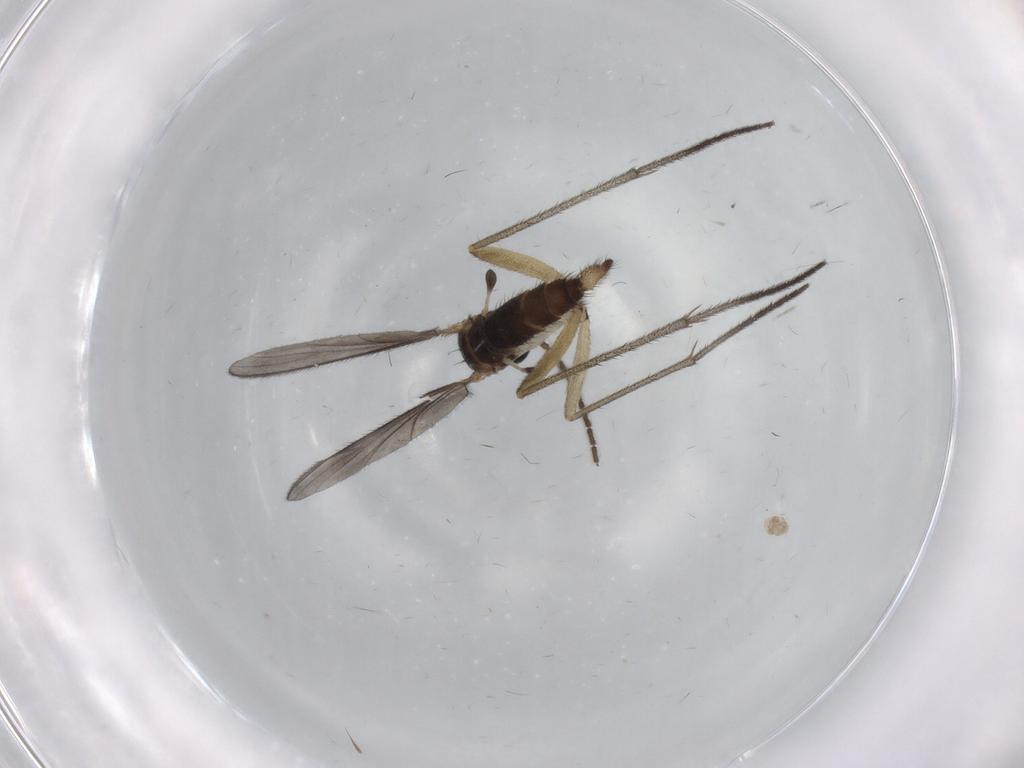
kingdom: Animalia
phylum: Arthropoda
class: Insecta
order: Diptera
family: Sciaridae
